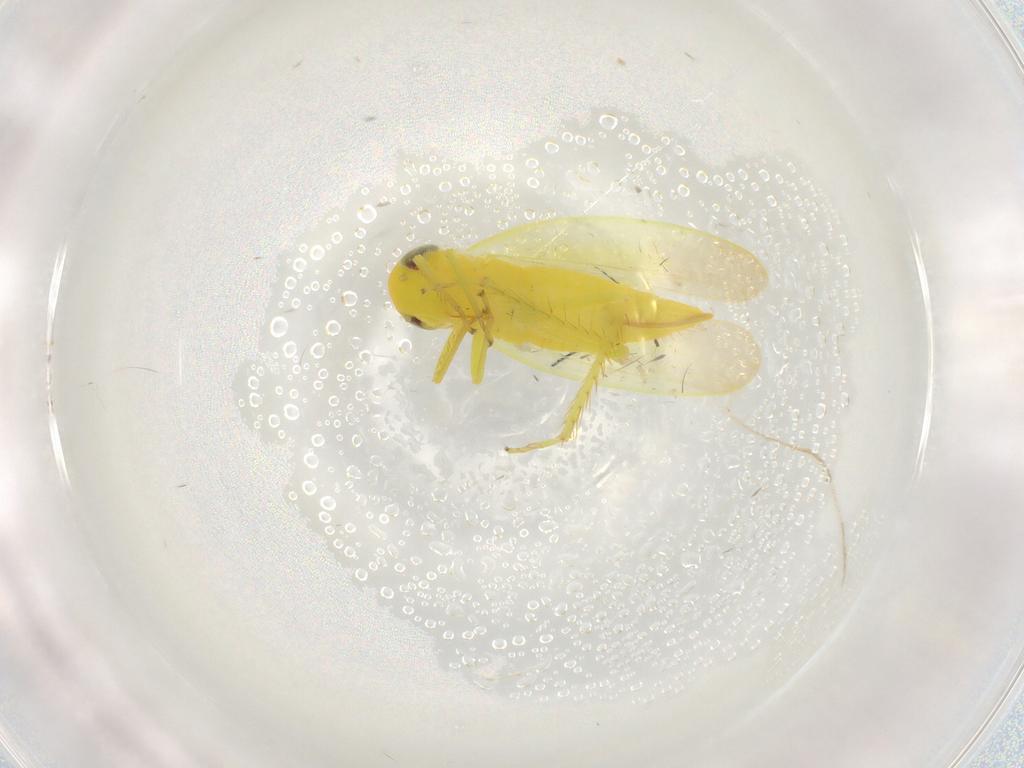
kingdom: Animalia
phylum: Arthropoda
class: Insecta
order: Hemiptera
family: Cicadellidae
